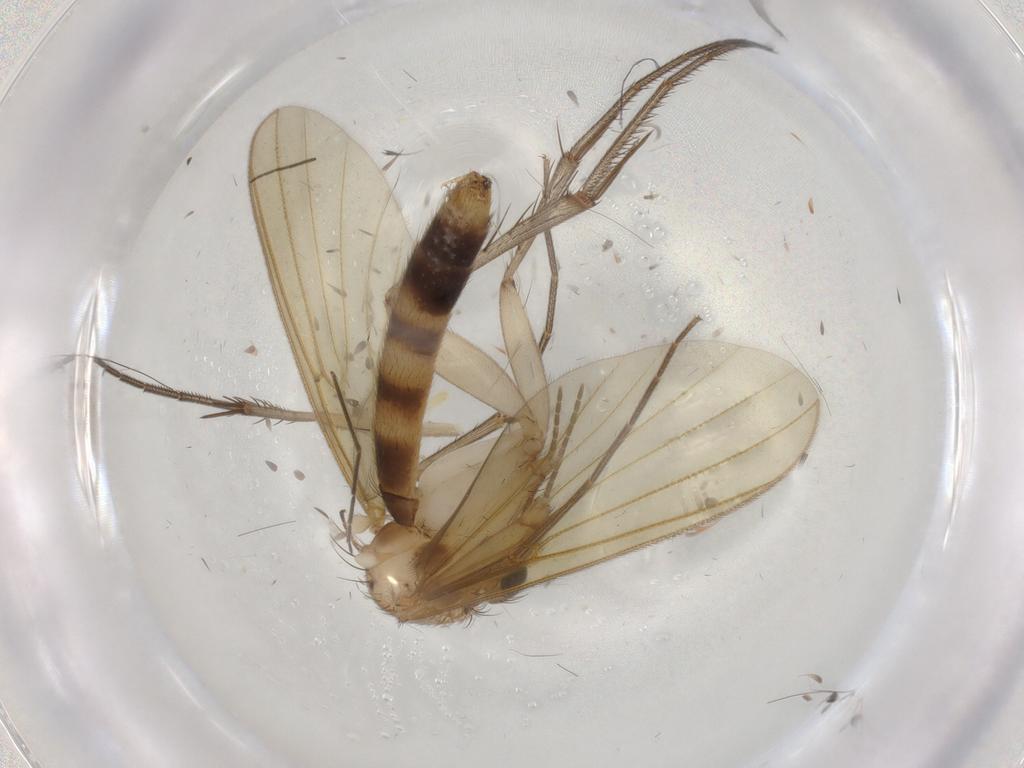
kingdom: Animalia
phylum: Arthropoda
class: Insecta
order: Diptera
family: Mycetophilidae
